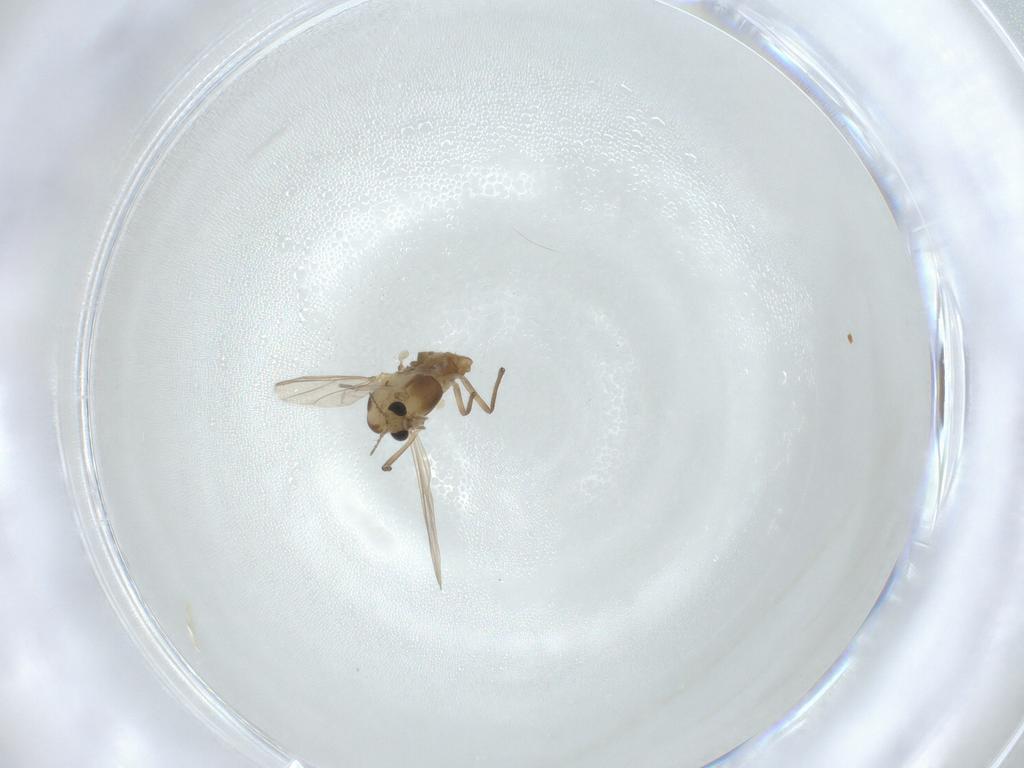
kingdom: Animalia
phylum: Arthropoda
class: Insecta
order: Diptera
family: Chironomidae
